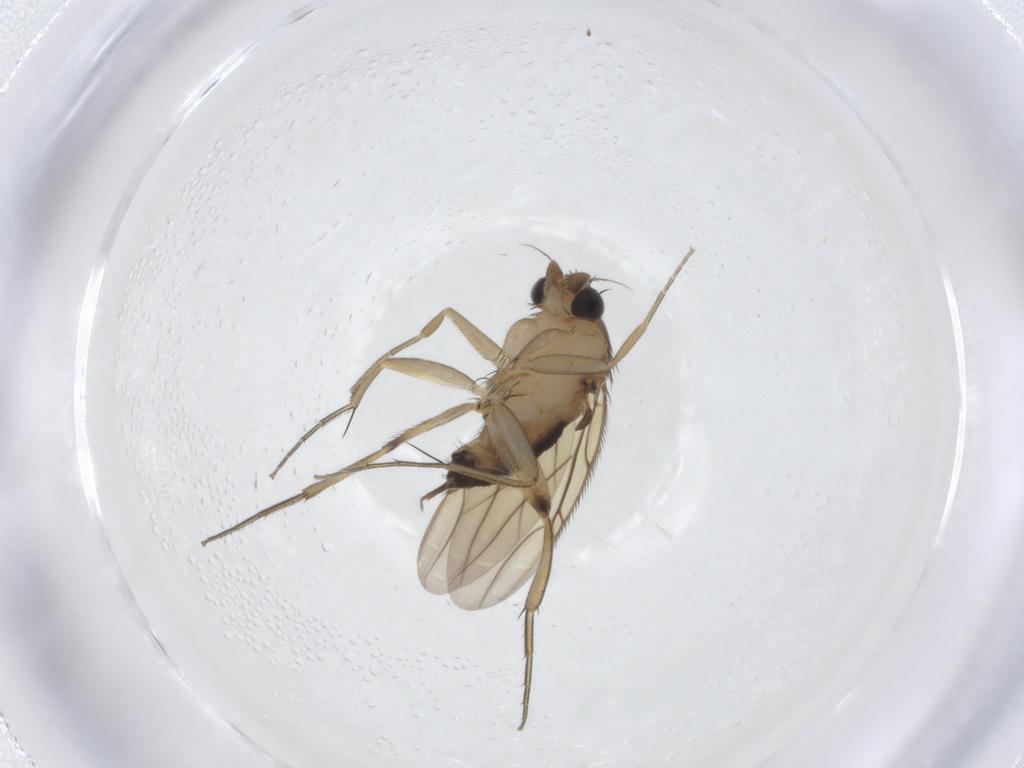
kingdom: Animalia
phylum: Arthropoda
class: Insecta
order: Diptera
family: Phoridae
